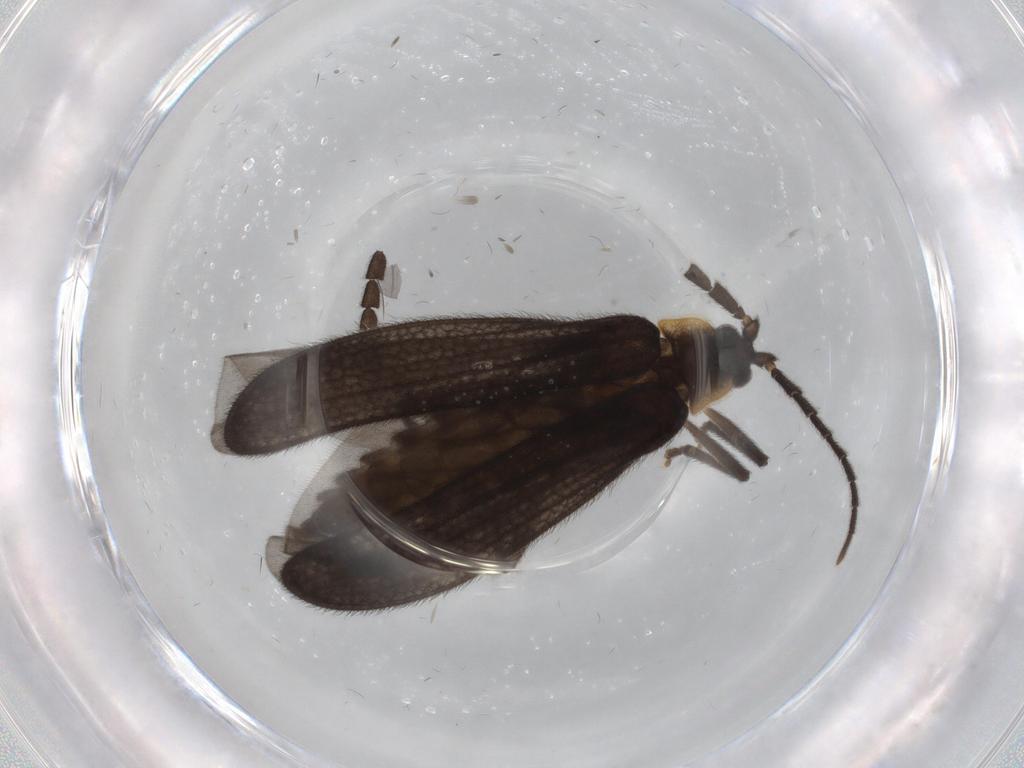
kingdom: Animalia
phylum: Arthropoda
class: Insecta
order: Coleoptera
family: Lycidae
